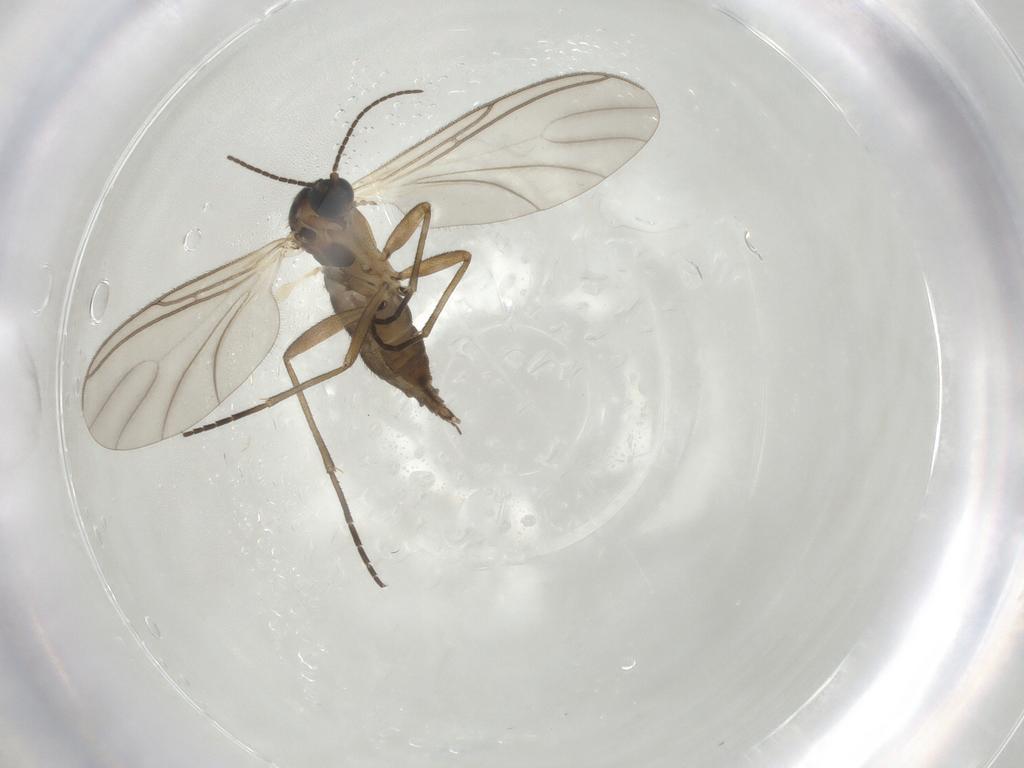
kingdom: Animalia
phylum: Arthropoda
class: Insecta
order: Diptera
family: Sciaridae
